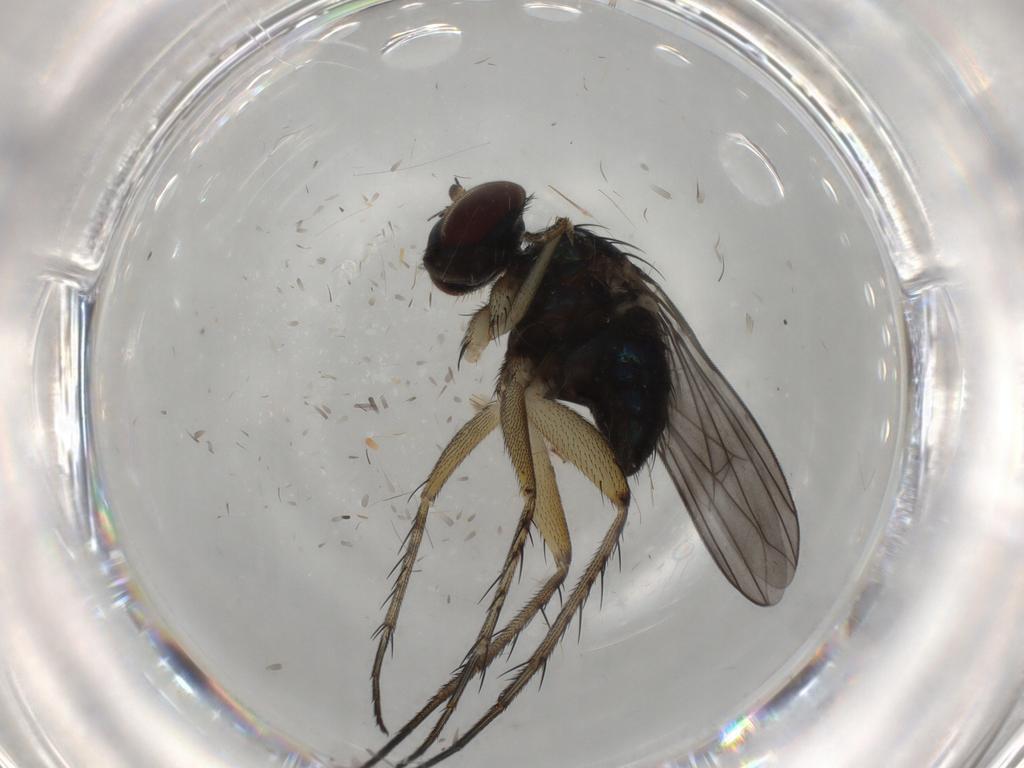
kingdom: Animalia
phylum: Arthropoda
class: Insecta
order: Diptera
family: Dolichopodidae
